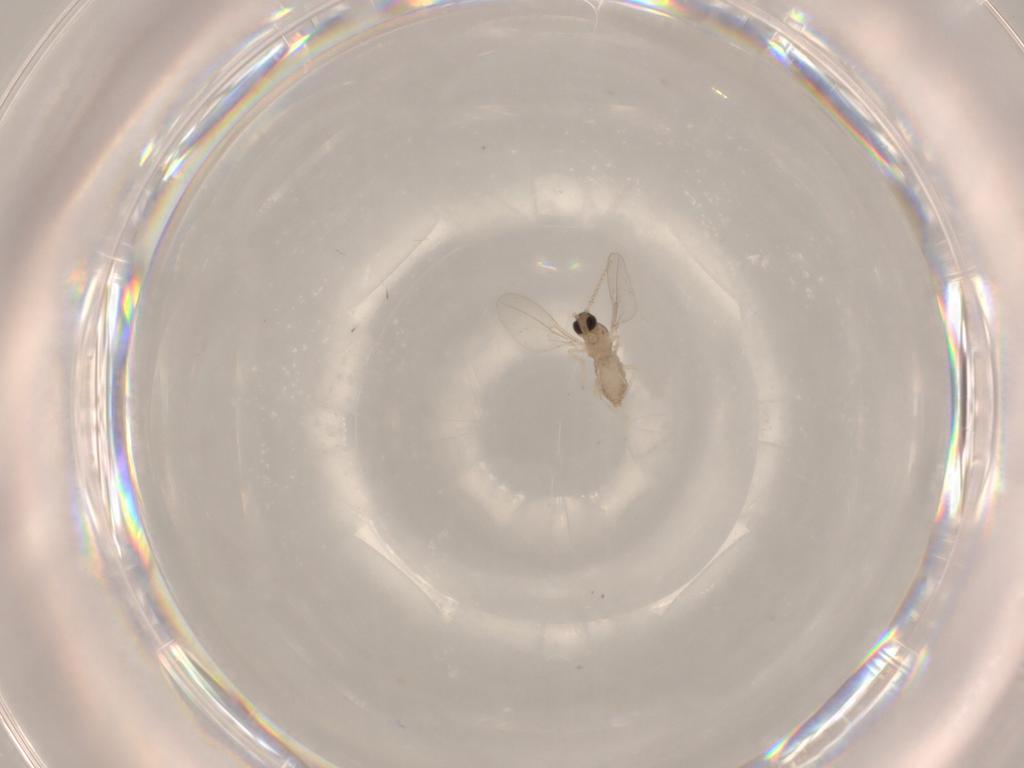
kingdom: Animalia
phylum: Arthropoda
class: Insecta
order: Diptera
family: Cecidomyiidae
